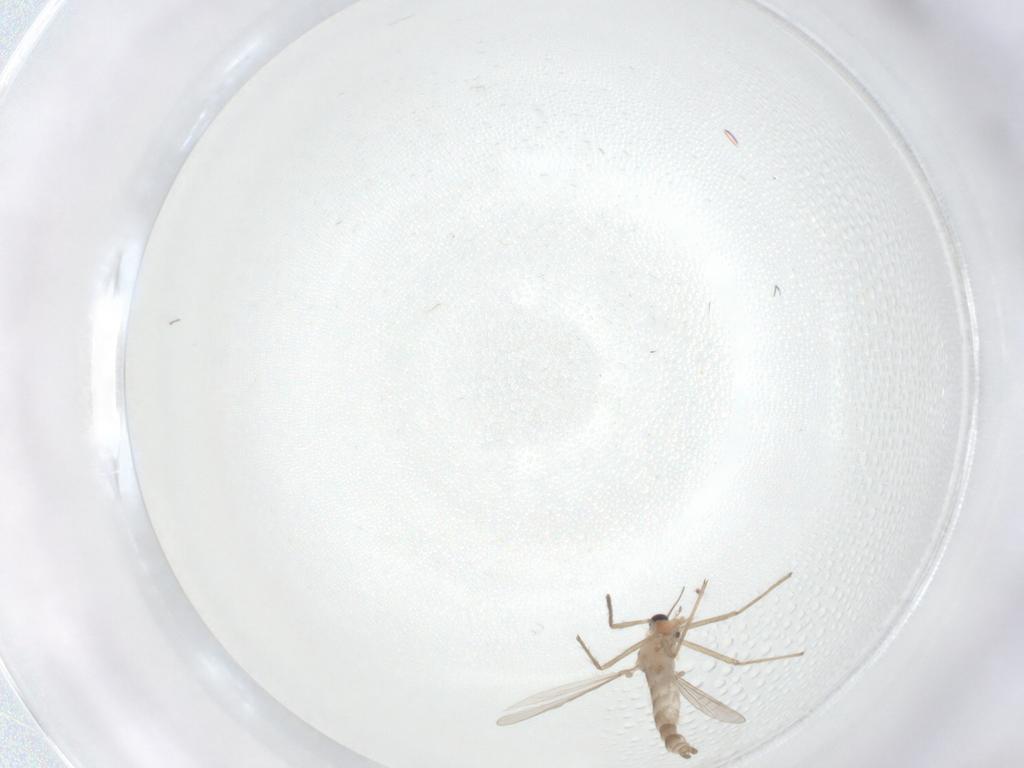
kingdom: Animalia
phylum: Arthropoda
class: Insecta
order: Diptera
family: Chironomidae
